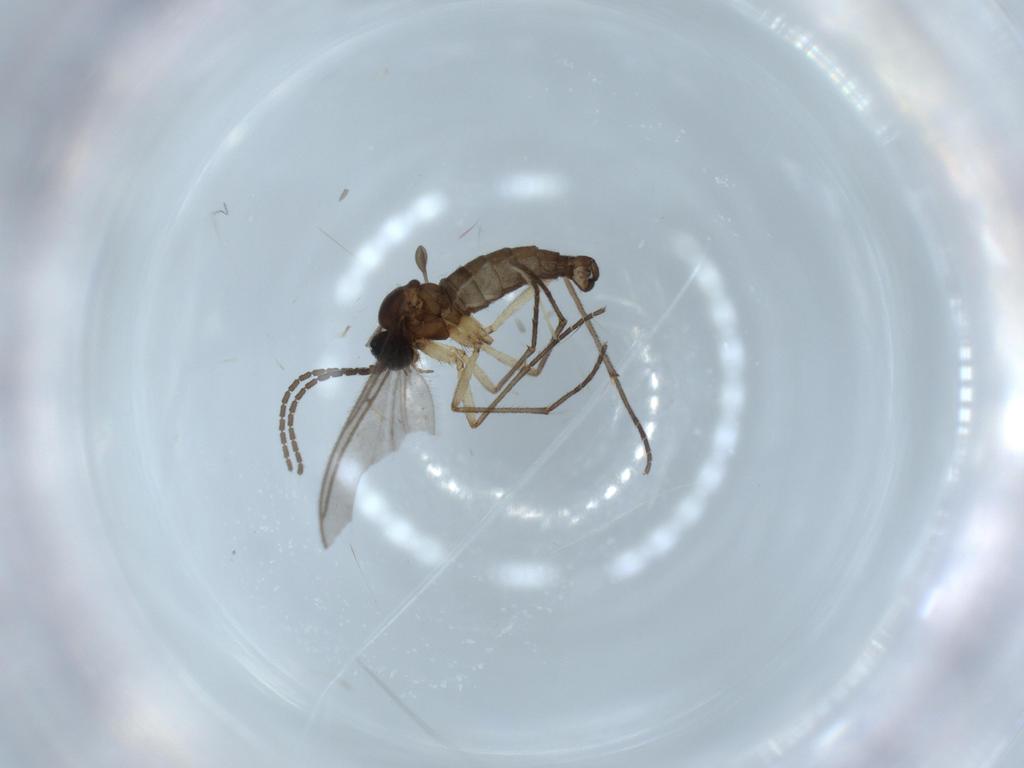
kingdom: Animalia
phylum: Arthropoda
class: Insecta
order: Diptera
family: Sciaridae
